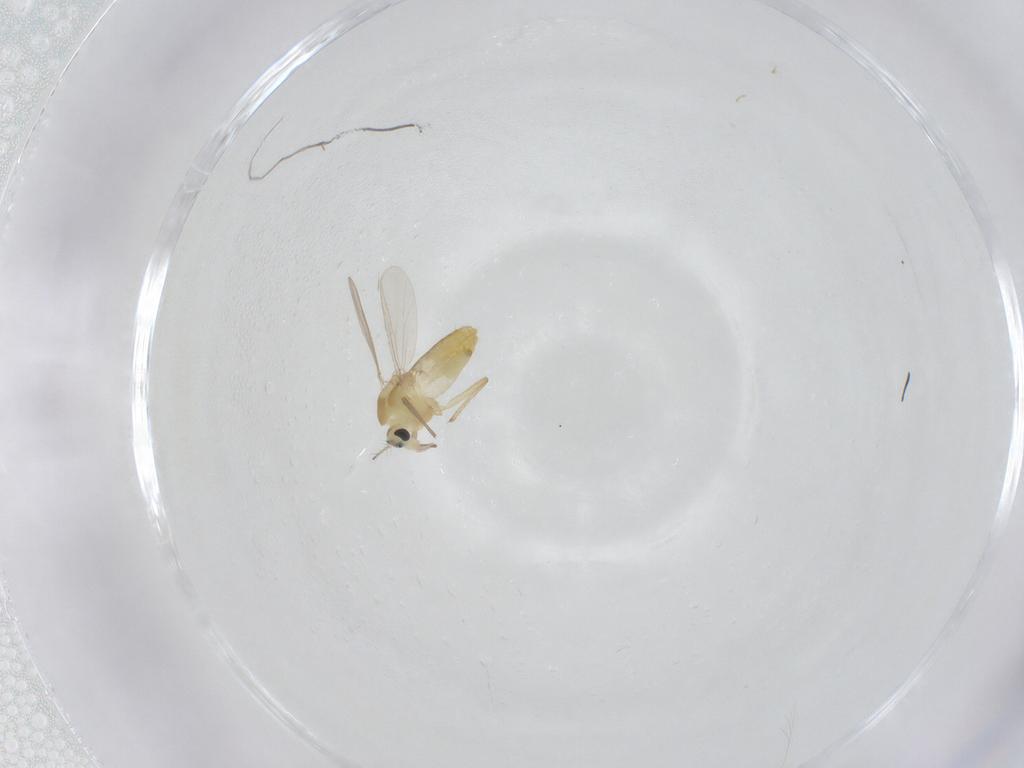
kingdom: Animalia
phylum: Arthropoda
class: Insecta
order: Diptera
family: Chironomidae
